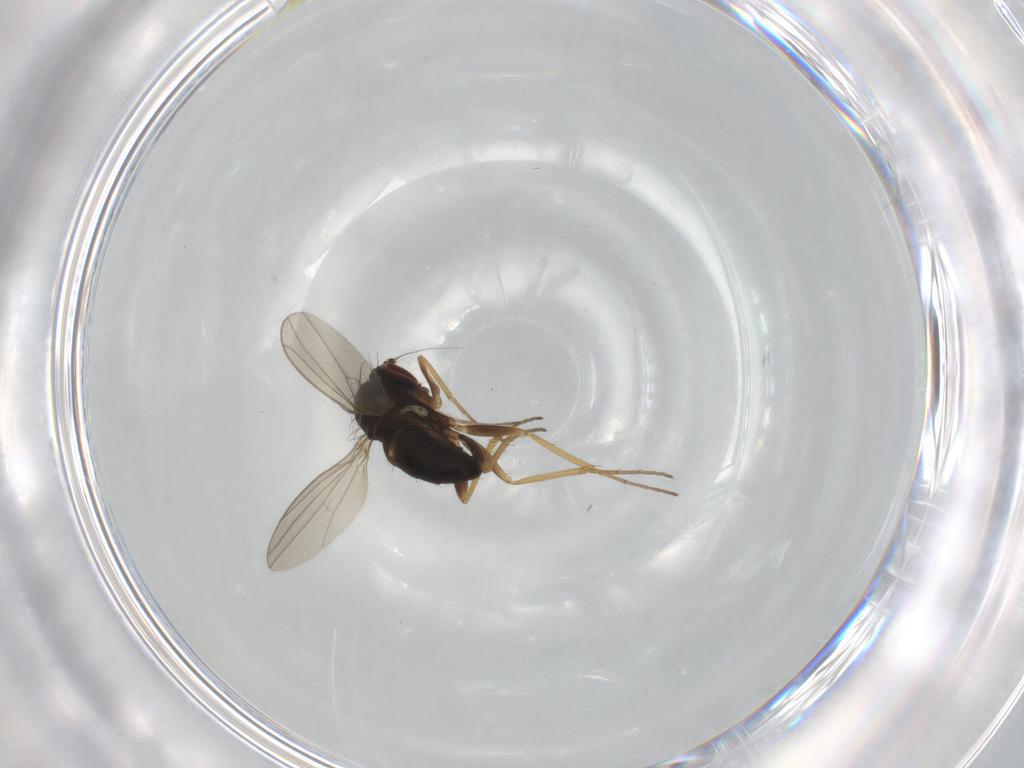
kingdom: Animalia
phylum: Arthropoda
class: Insecta
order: Diptera
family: Dolichopodidae
